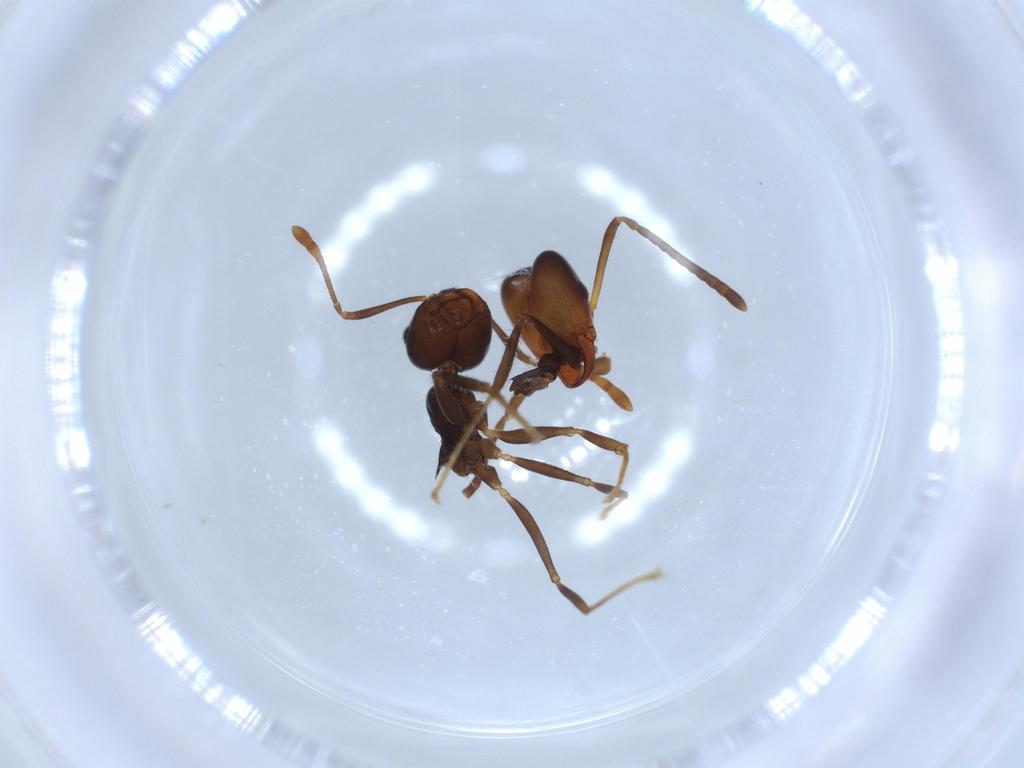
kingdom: Animalia
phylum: Arthropoda
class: Insecta
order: Hymenoptera
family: Formicidae
